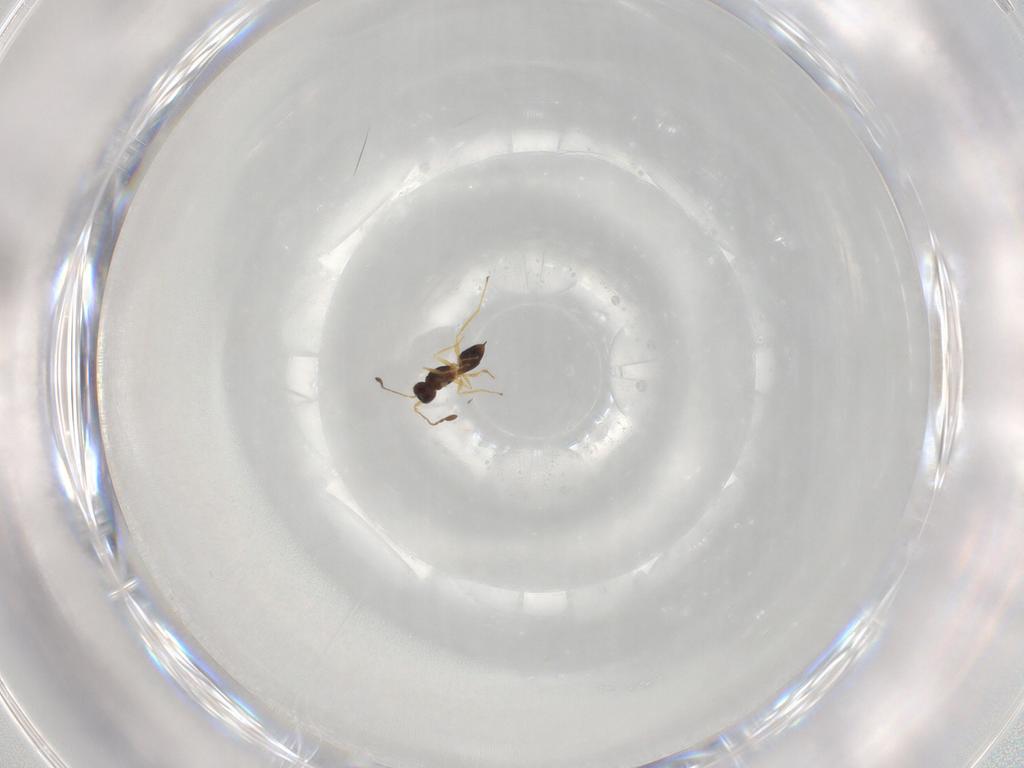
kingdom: Animalia
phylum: Arthropoda
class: Insecta
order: Hymenoptera
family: Mymaridae
